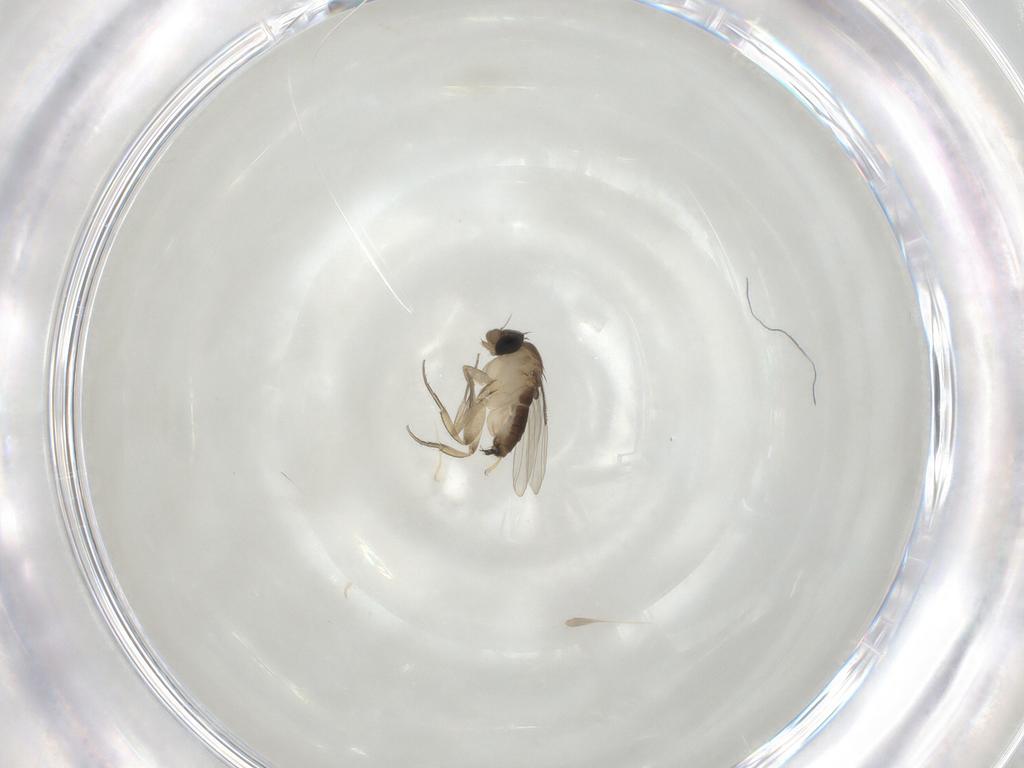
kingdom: Animalia
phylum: Arthropoda
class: Insecta
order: Diptera
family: Phoridae
